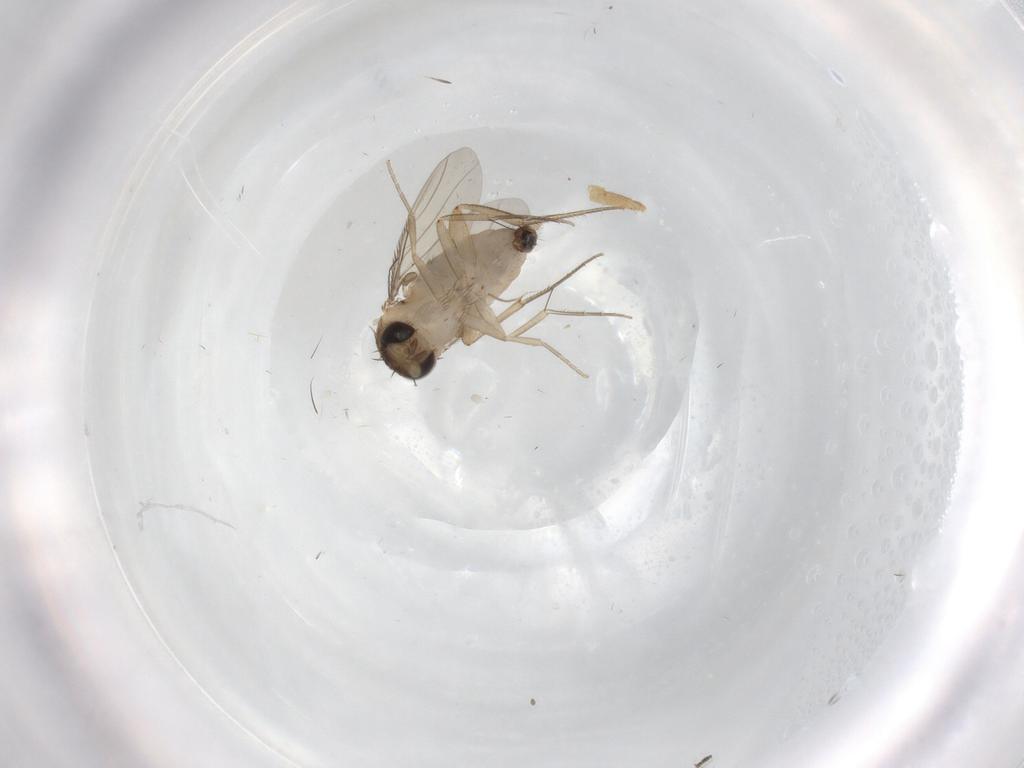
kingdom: Animalia
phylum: Arthropoda
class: Insecta
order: Diptera
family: Phoridae
